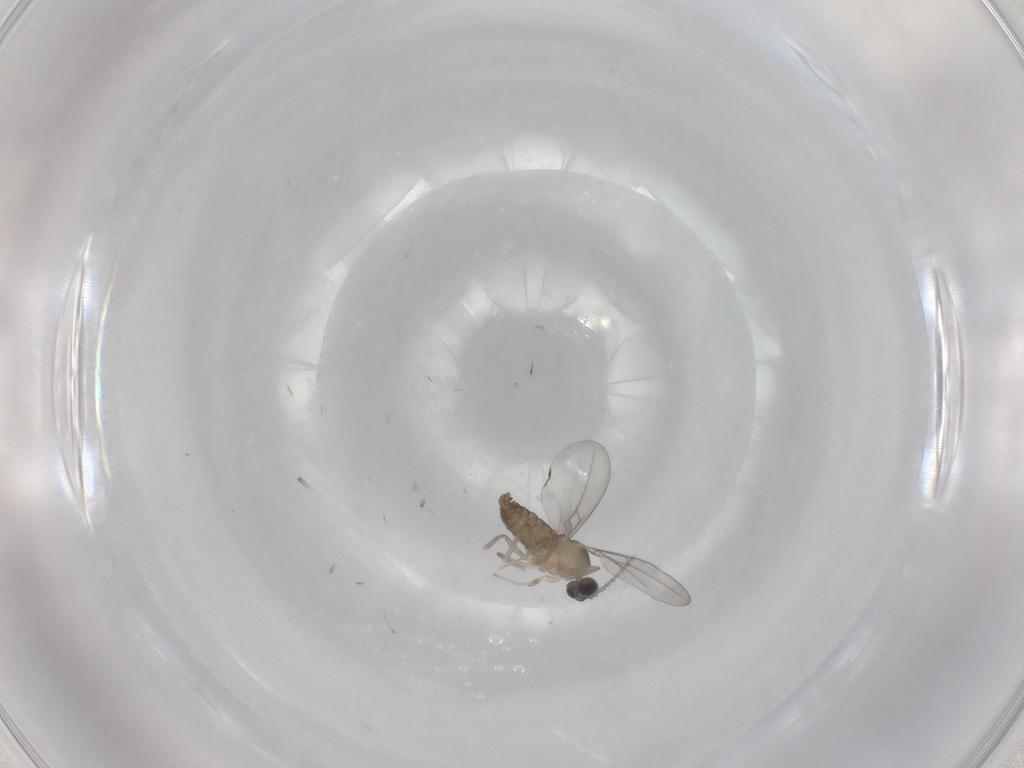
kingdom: Animalia
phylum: Arthropoda
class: Insecta
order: Diptera
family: Cecidomyiidae
